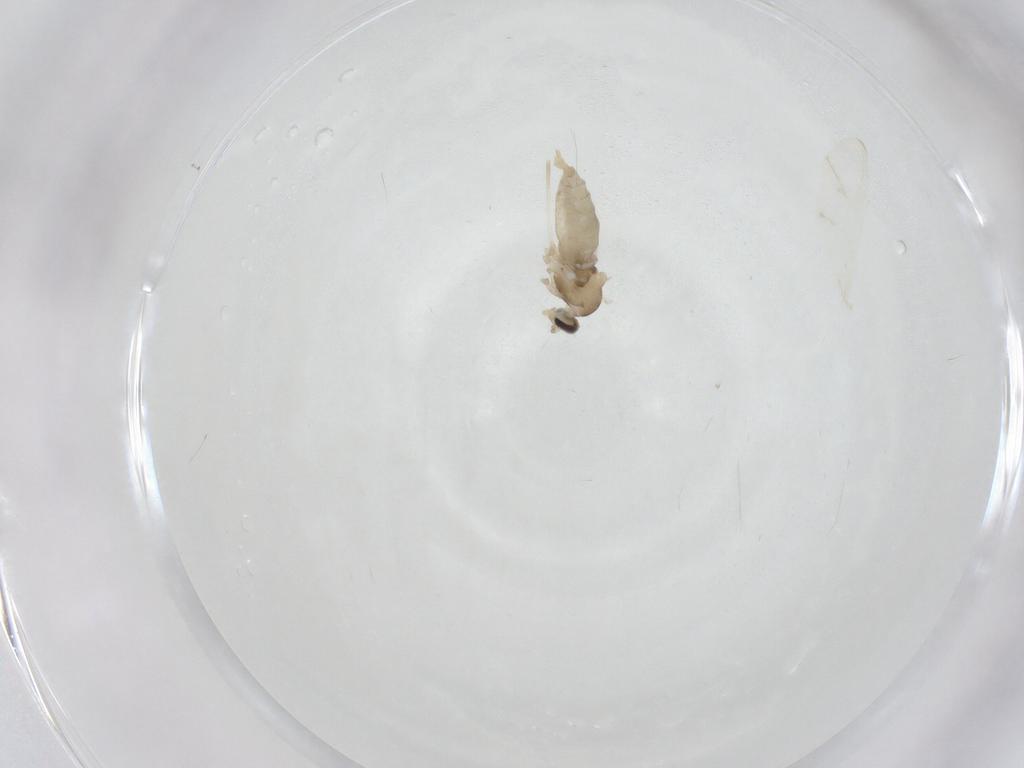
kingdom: Animalia
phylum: Arthropoda
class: Insecta
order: Diptera
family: Cecidomyiidae
